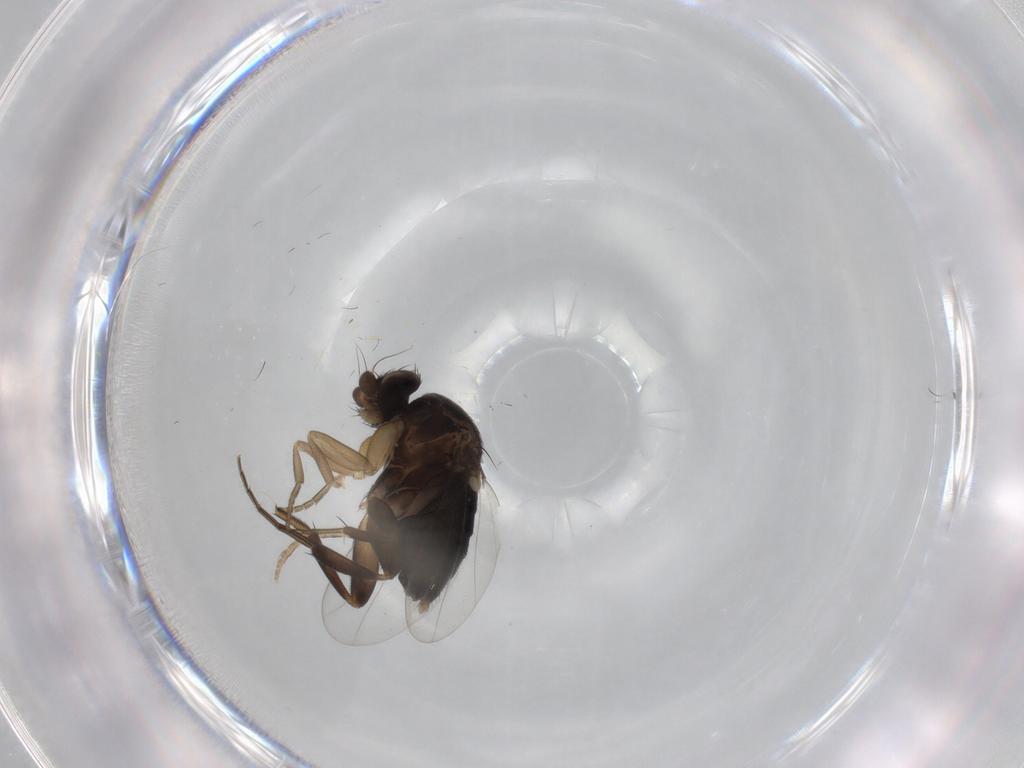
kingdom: Animalia
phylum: Arthropoda
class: Insecta
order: Diptera
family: Phoridae
